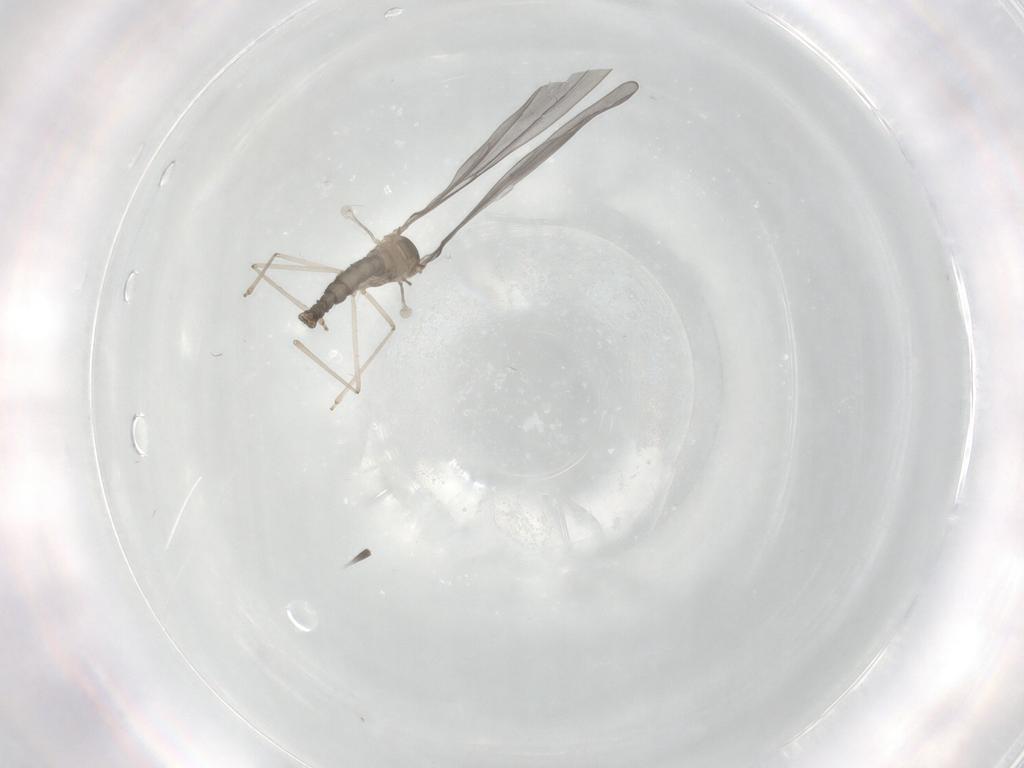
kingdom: Animalia
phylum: Arthropoda
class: Insecta
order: Diptera
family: Cecidomyiidae
